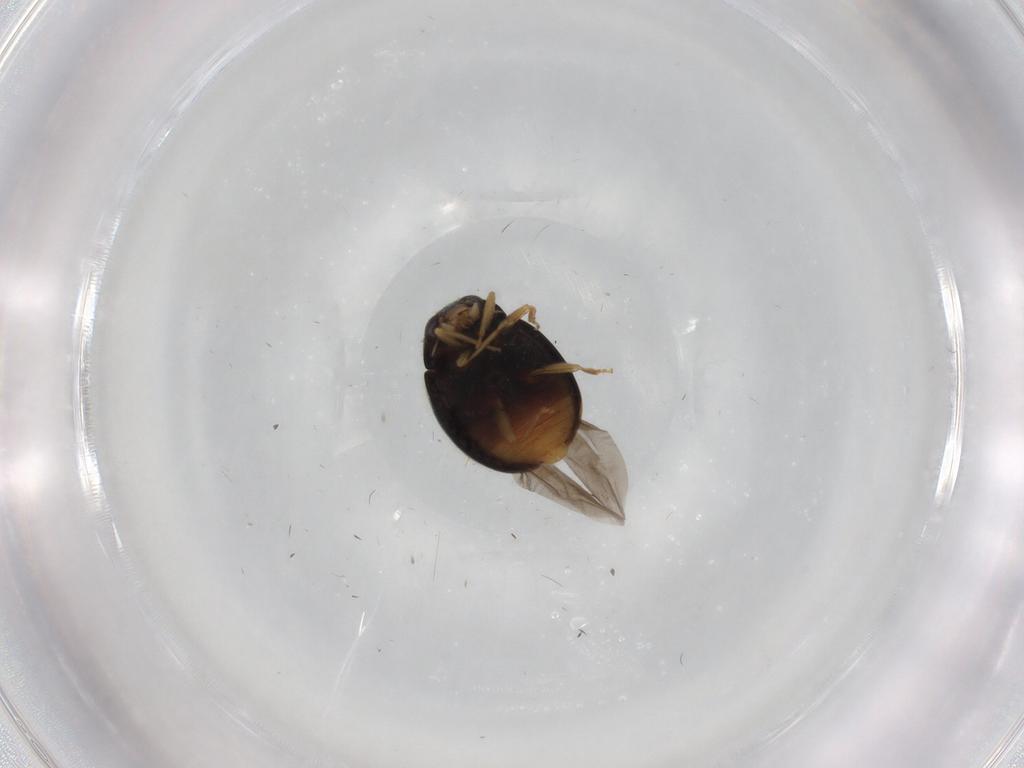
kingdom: Animalia
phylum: Arthropoda
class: Insecta
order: Coleoptera
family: Coccinellidae
